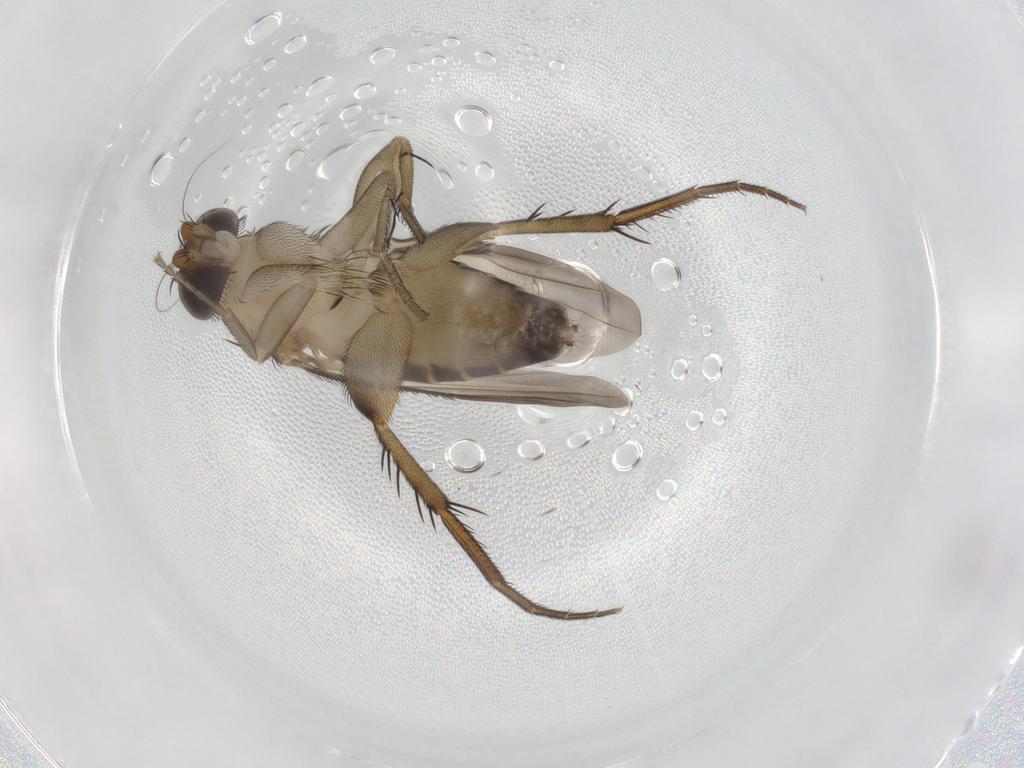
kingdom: Animalia
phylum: Arthropoda
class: Insecta
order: Diptera
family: Phoridae
